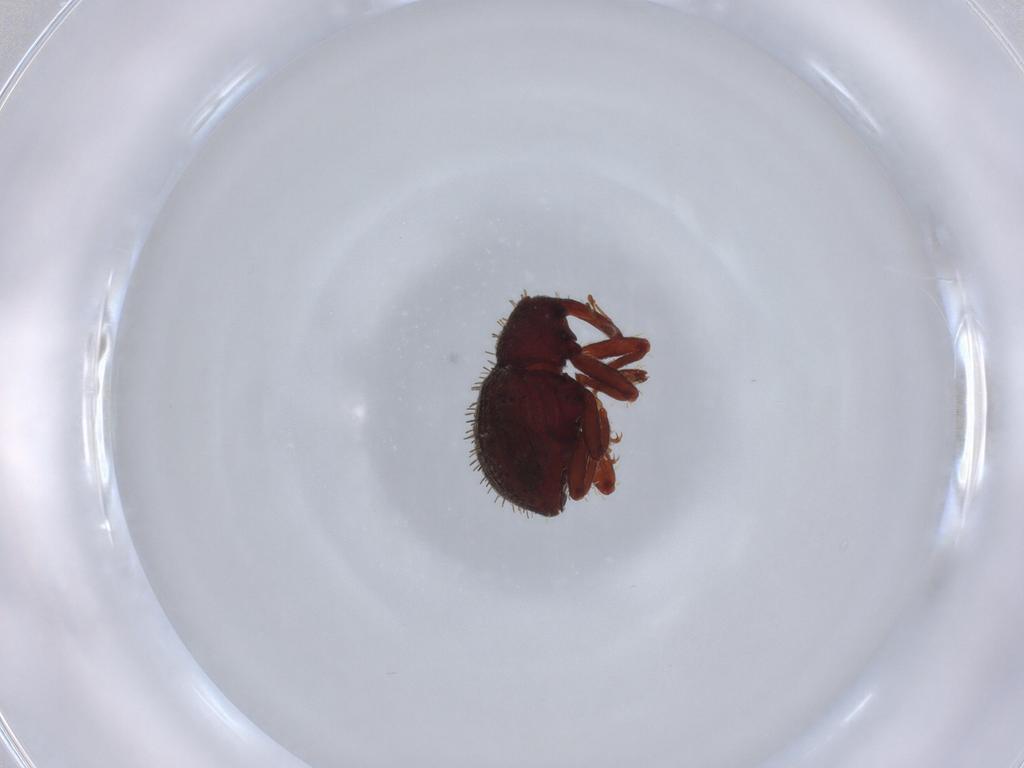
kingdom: Animalia
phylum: Arthropoda
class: Insecta
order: Coleoptera
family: Curculionidae
